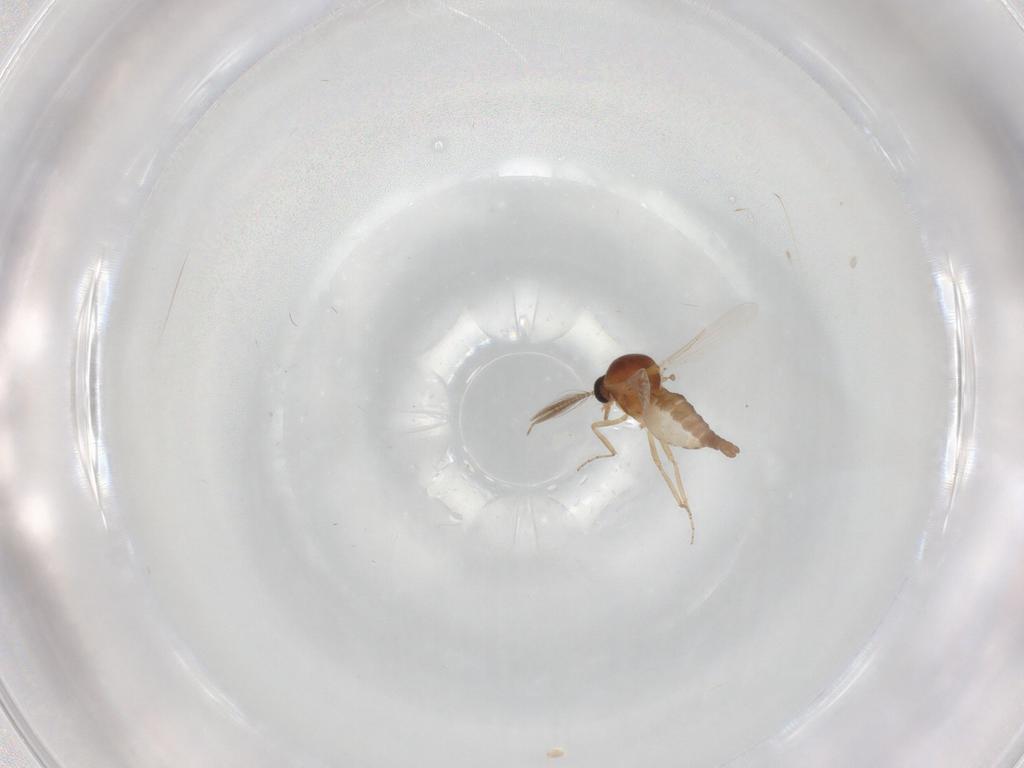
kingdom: Animalia
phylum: Arthropoda
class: Insecta
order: Diptera
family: Ceratopogonidae
